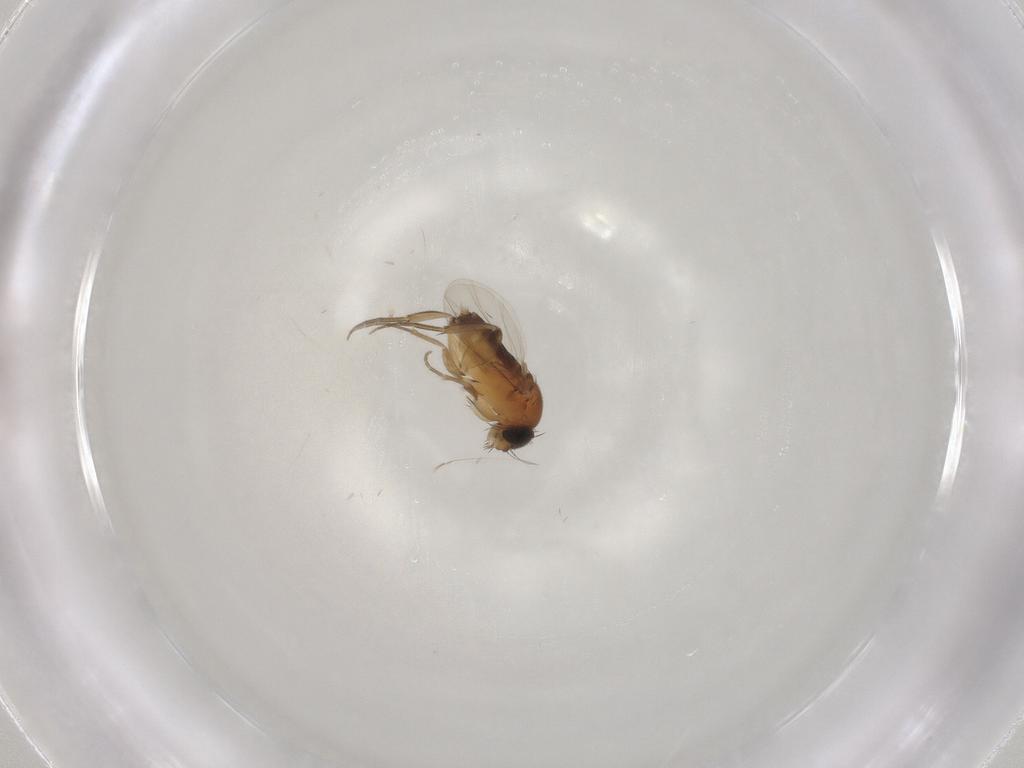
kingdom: Animalia
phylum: Arthropoda
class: Insecta
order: Diptera
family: Phoridae
